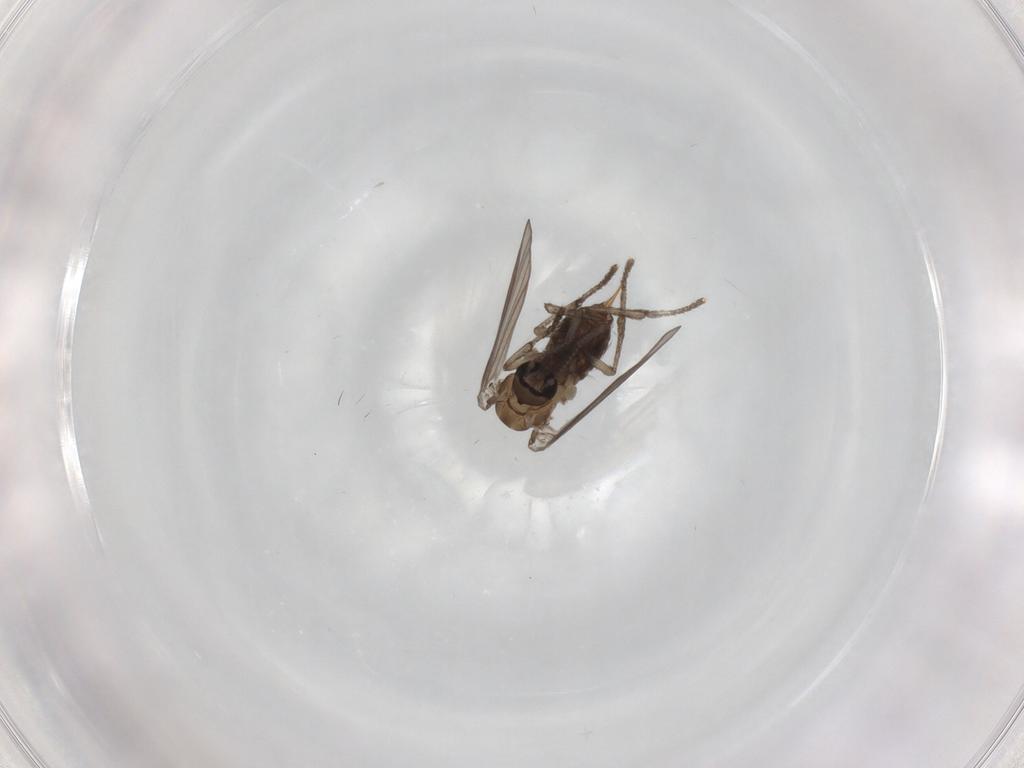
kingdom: Animalia
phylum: Arthropoda
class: Insecta
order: Diptera
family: Psychodidae
